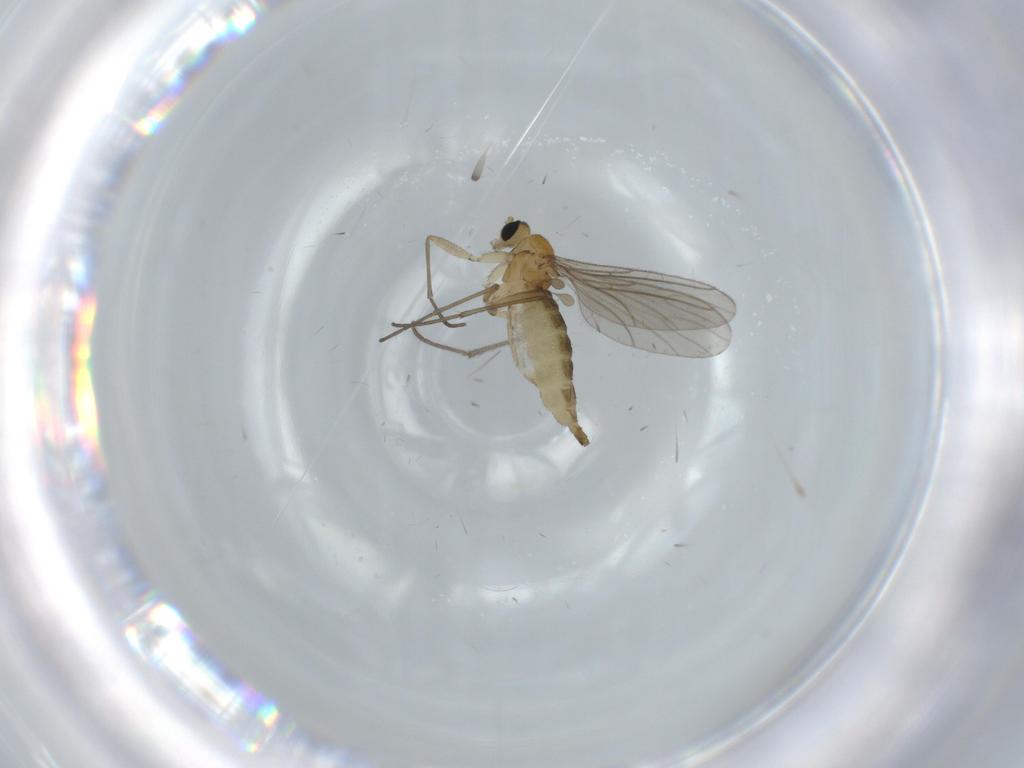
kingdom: Animalia
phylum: Arthropoda
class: Insecta
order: Diptera
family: Sciaridae
